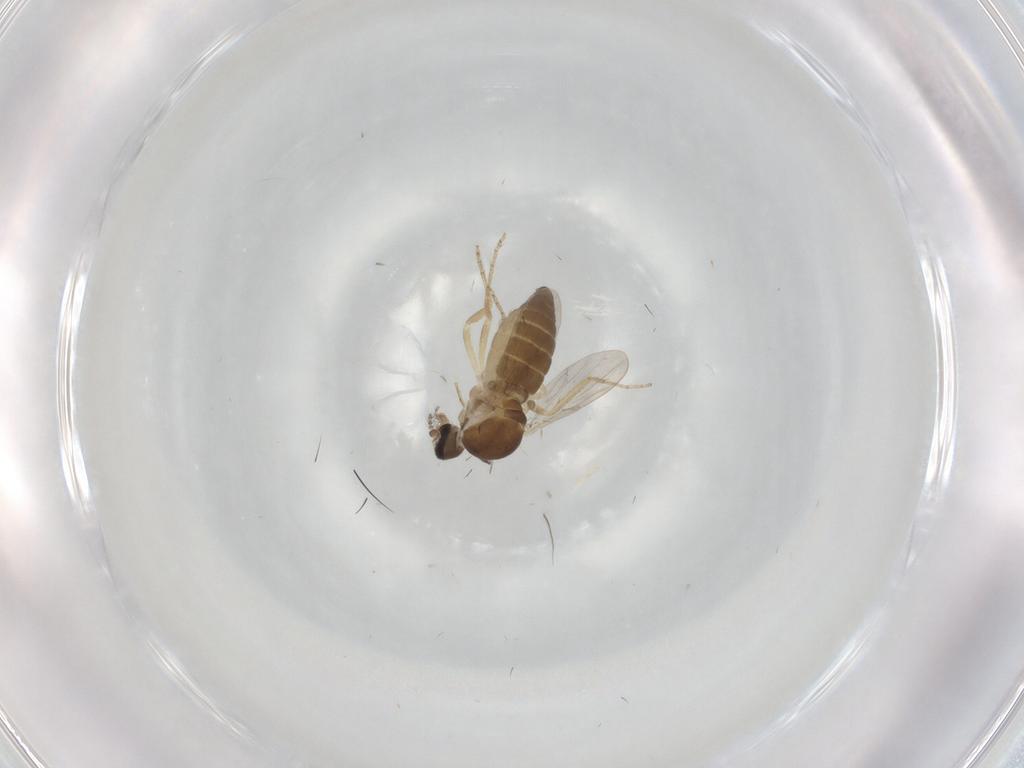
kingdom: Animalia
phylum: Arthropoda
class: Insecta
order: Diptera
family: Ceratopogonidae
